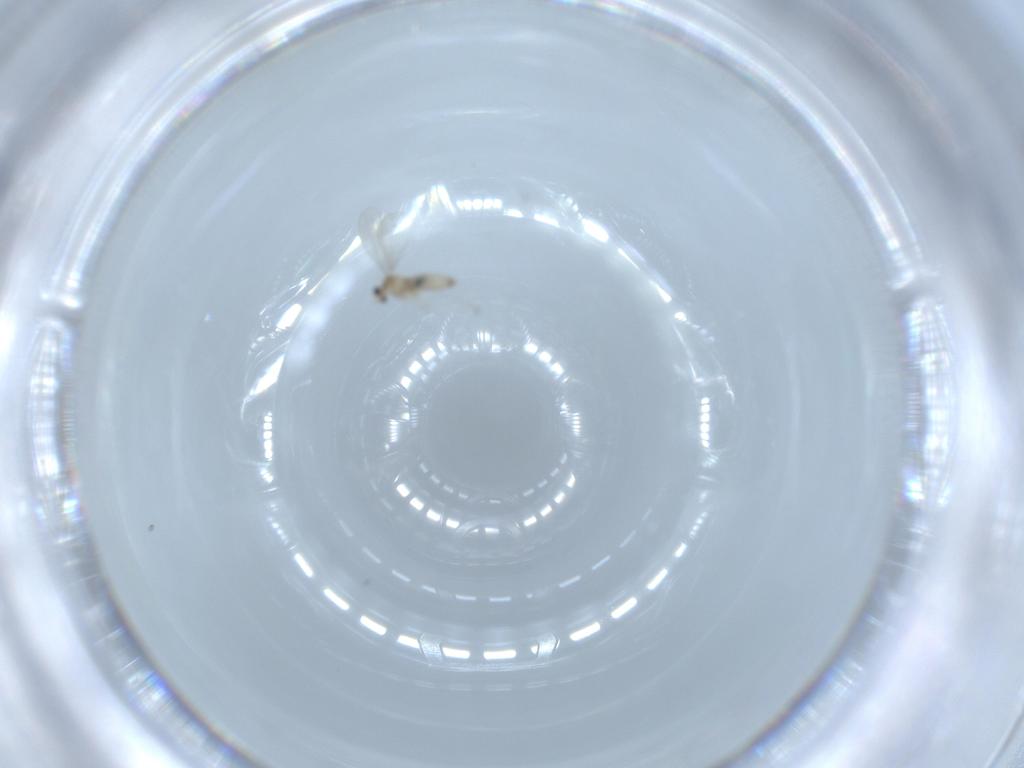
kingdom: Animalia
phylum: Arthropoda
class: Insecta
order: Diptera
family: Cecidomyiidae
